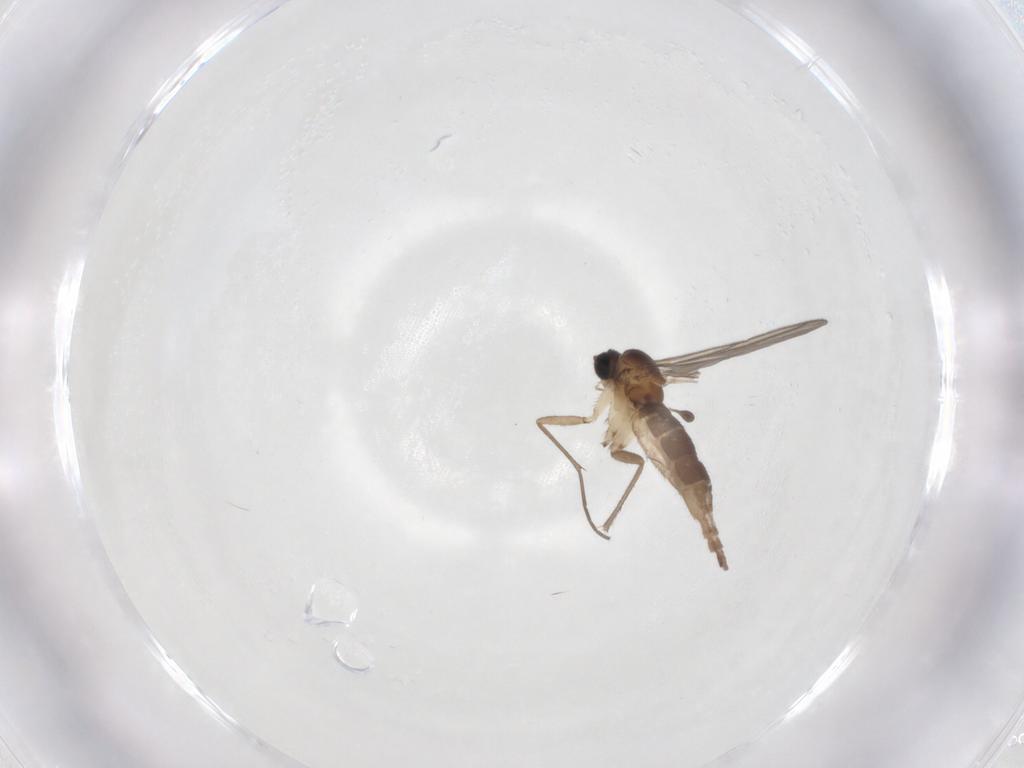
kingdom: Animalia
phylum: Arthropoda
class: Insecta
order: Diptera
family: Sciaridae
